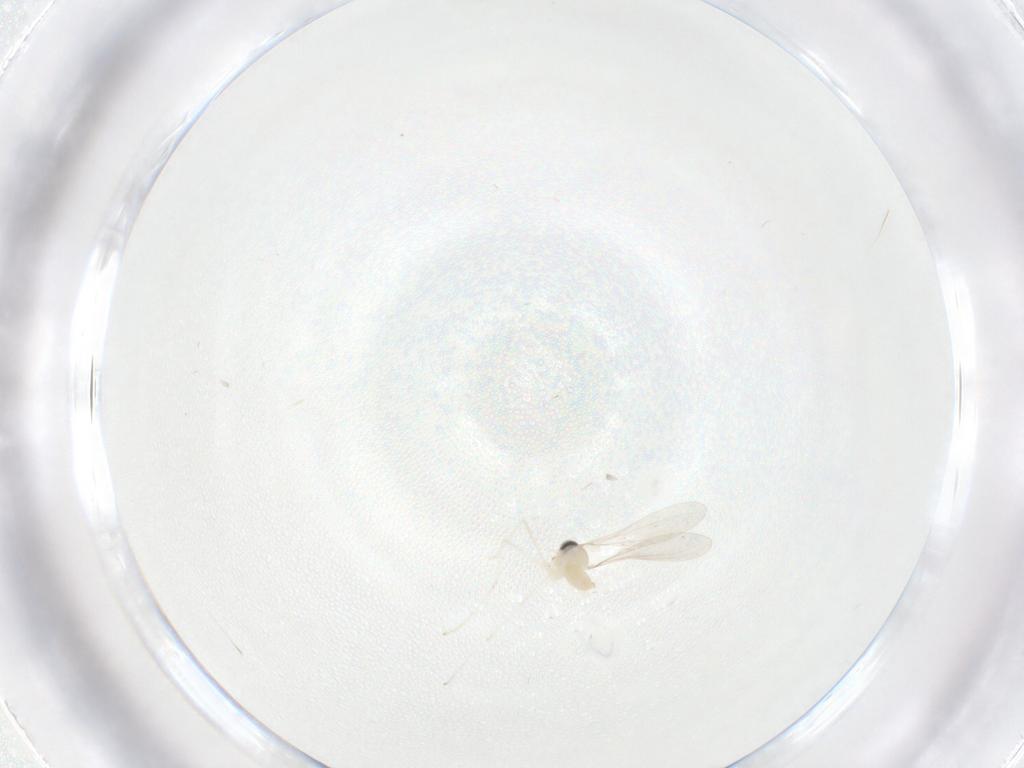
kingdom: Animalia
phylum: Arthropoda
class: Insecta
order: Diptera
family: Cecidomyiidae
